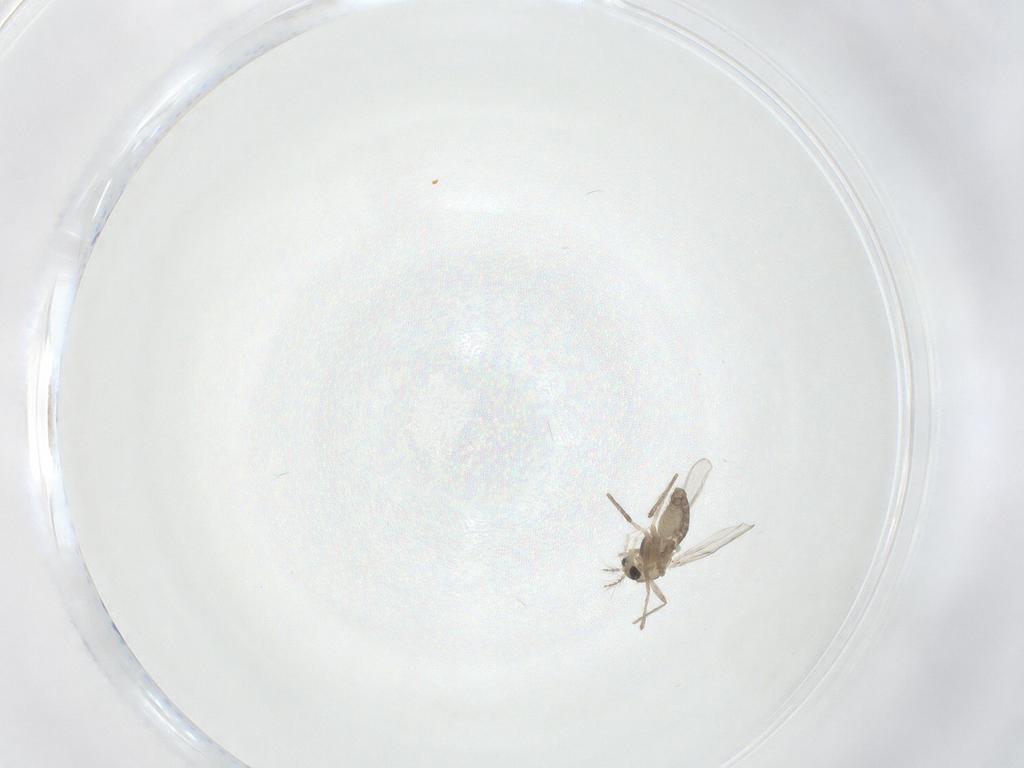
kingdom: Animalia
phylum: Arthropoda
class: Insecta
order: Diptera
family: Chironomidae
